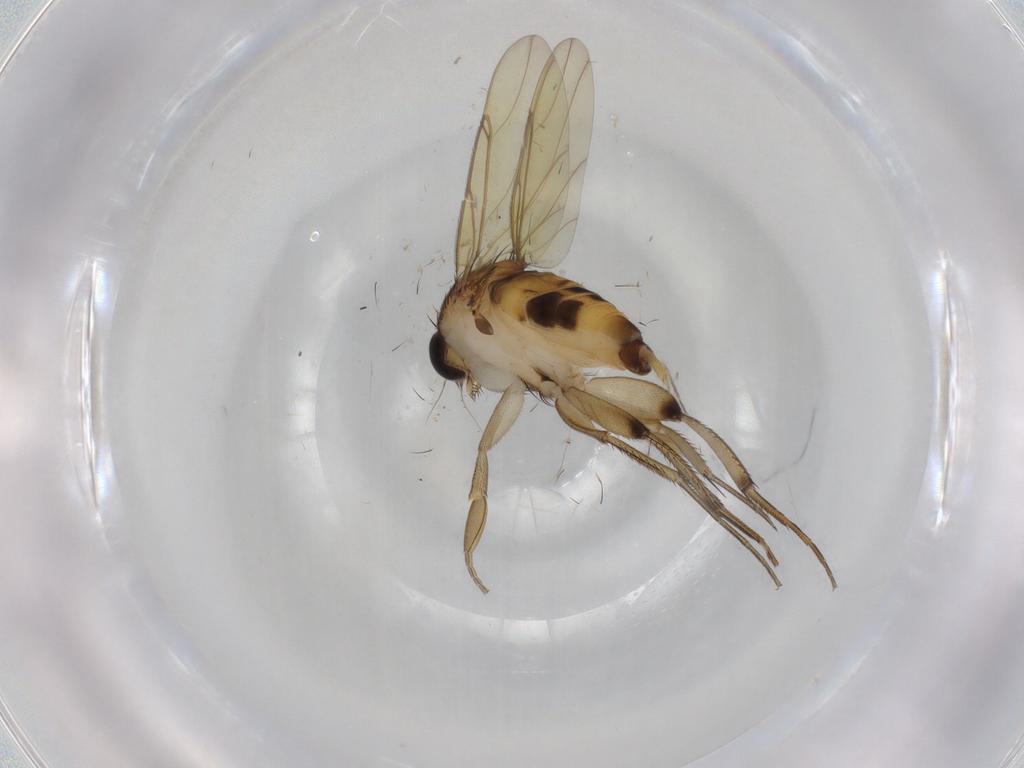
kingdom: Animalia
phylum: Arthropoda
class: Insecta
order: Diptera
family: Phoridae
